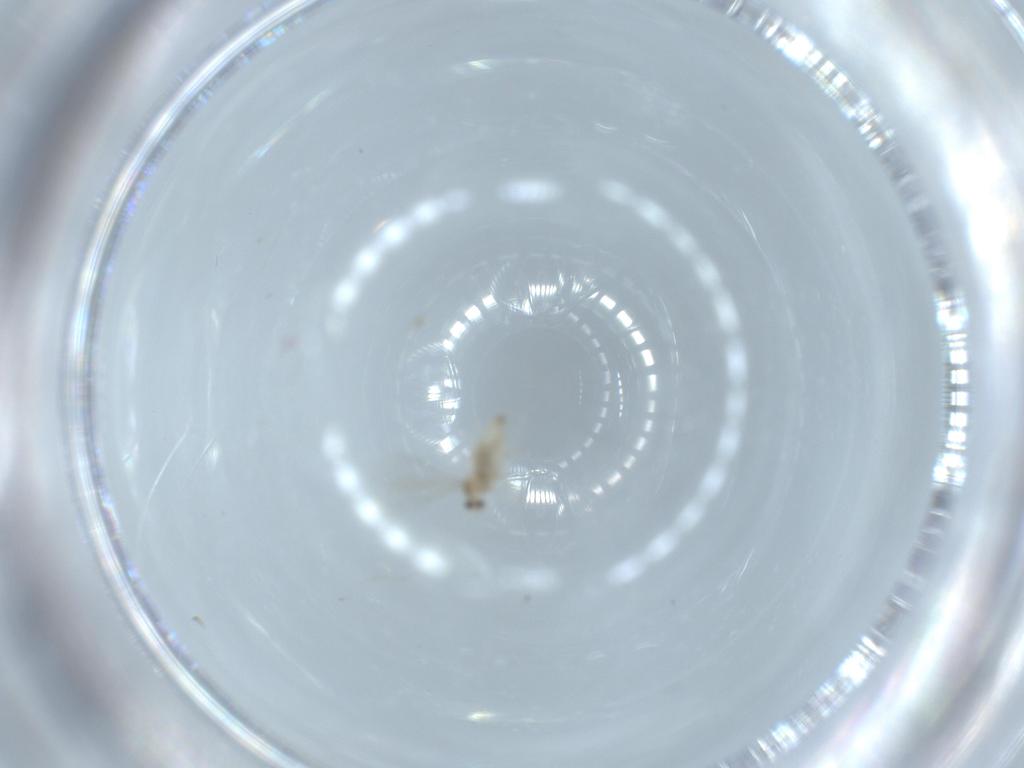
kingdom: Animalia
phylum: Arthropoda
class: Insecta
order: Diptera
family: Cecidomyiidae
